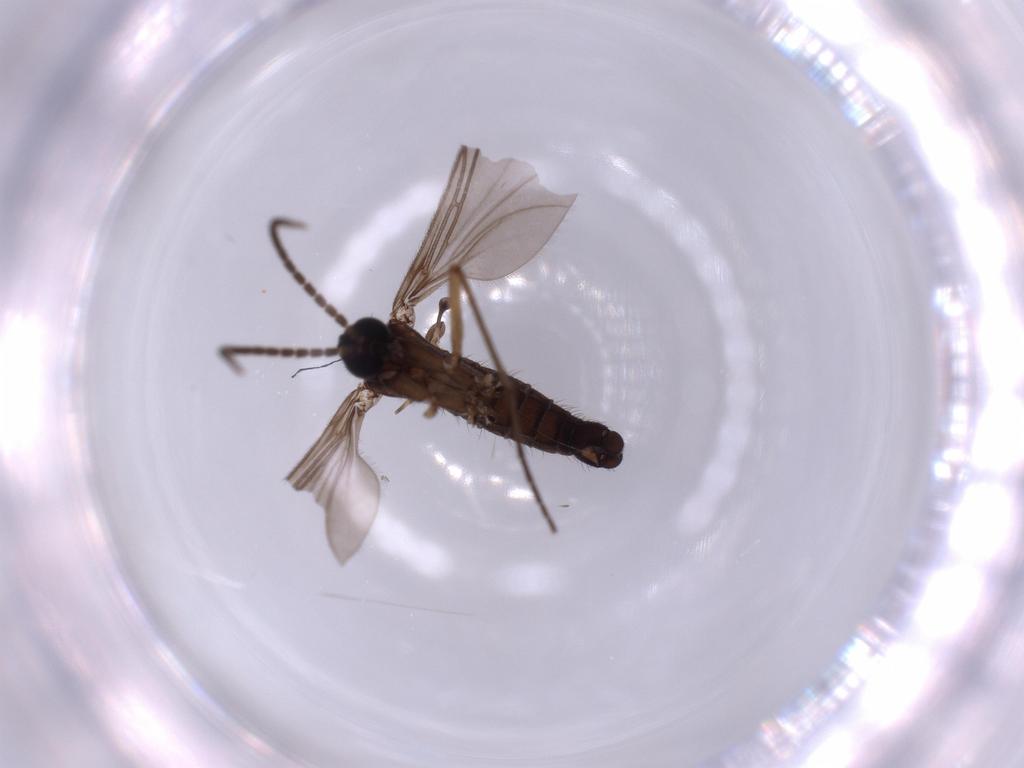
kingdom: Animalia
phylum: Arthropoda
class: Insecta
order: Diptera
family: Sciaridae
